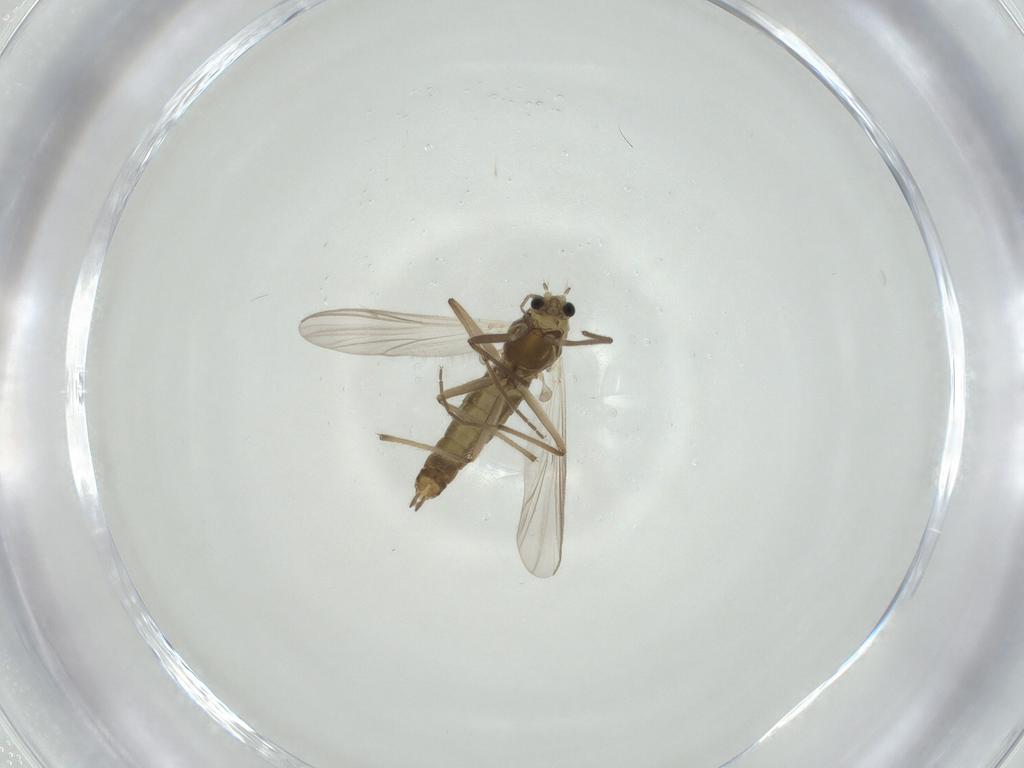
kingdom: Animalia
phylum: Arthropoda
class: Insecta
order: Diptera
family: Chironomidae
